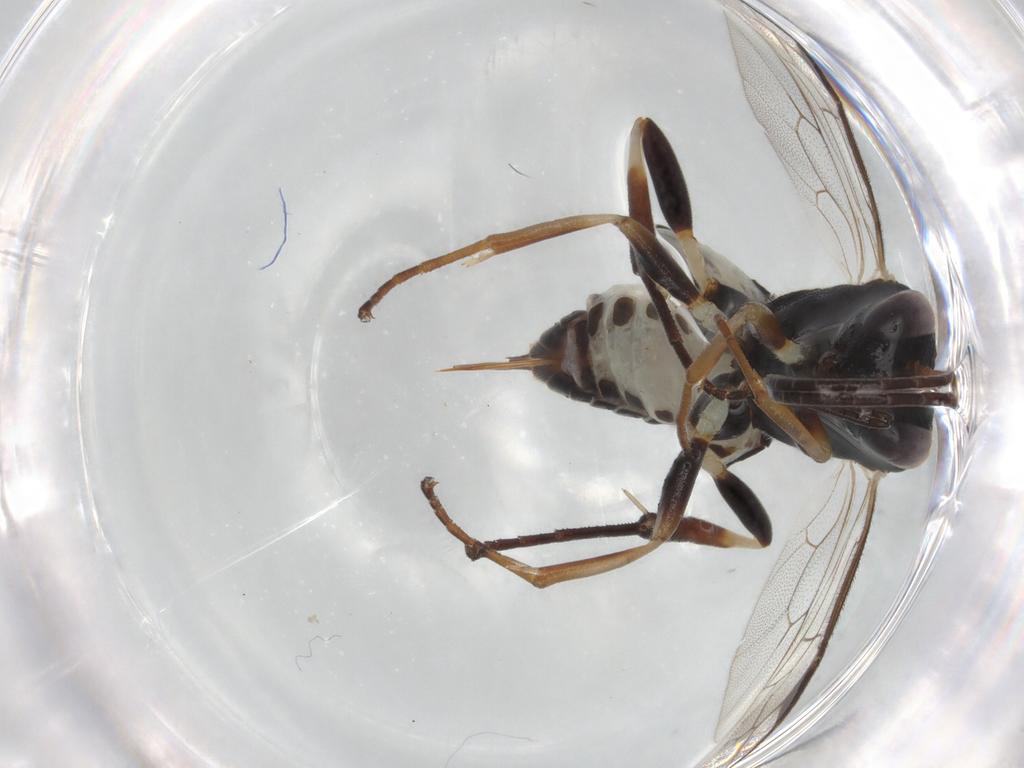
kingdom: Animalia
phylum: Arthropoda
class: Insecta
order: Hymenoptera
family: Ichneumonidae
